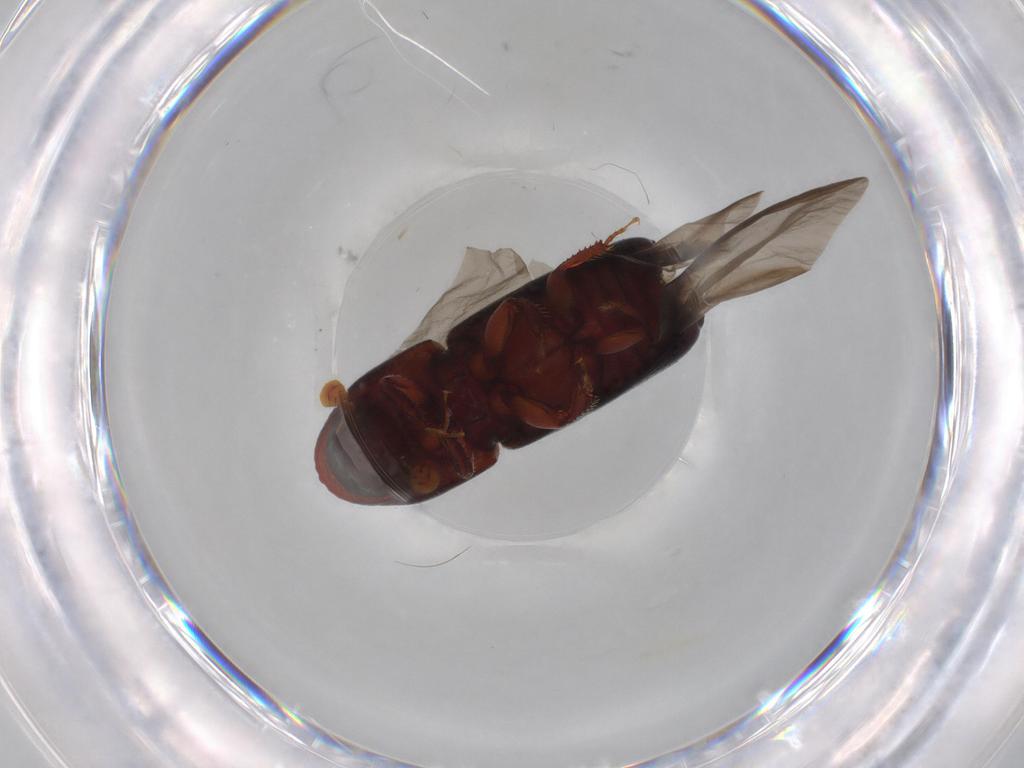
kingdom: Animalia
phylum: Arthropoda
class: Insecta
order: Coleoptera
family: Curculionidae
